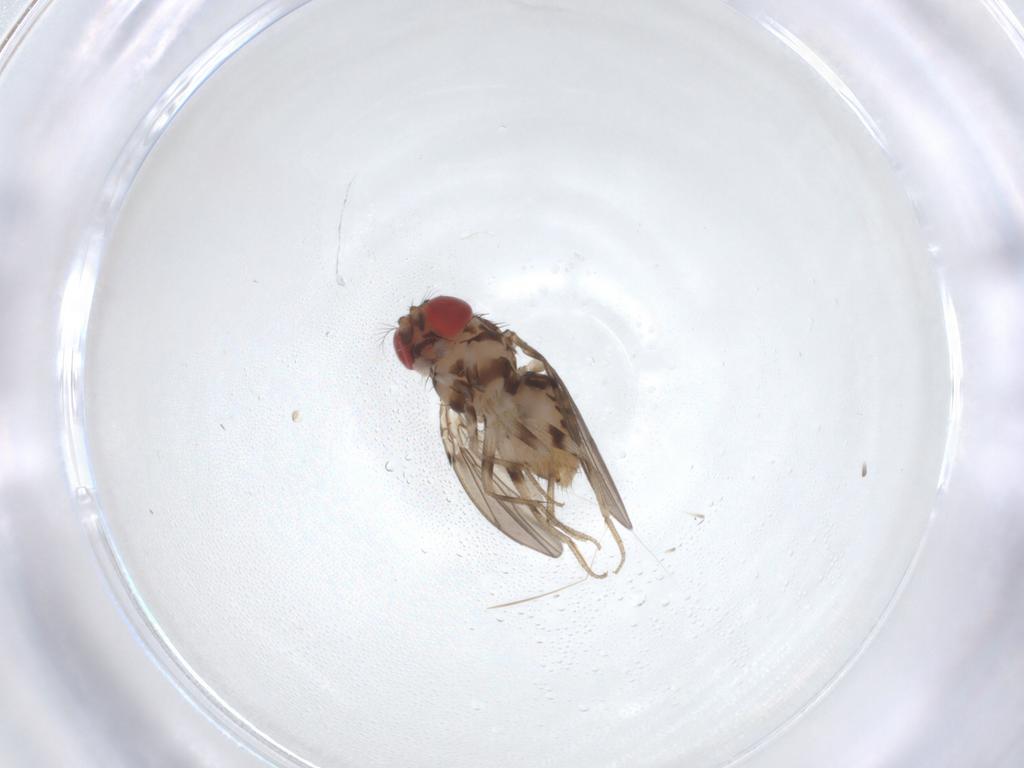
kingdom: Animalia
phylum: Arthropoda
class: Insecta
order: Diptera
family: Drosophilidae
